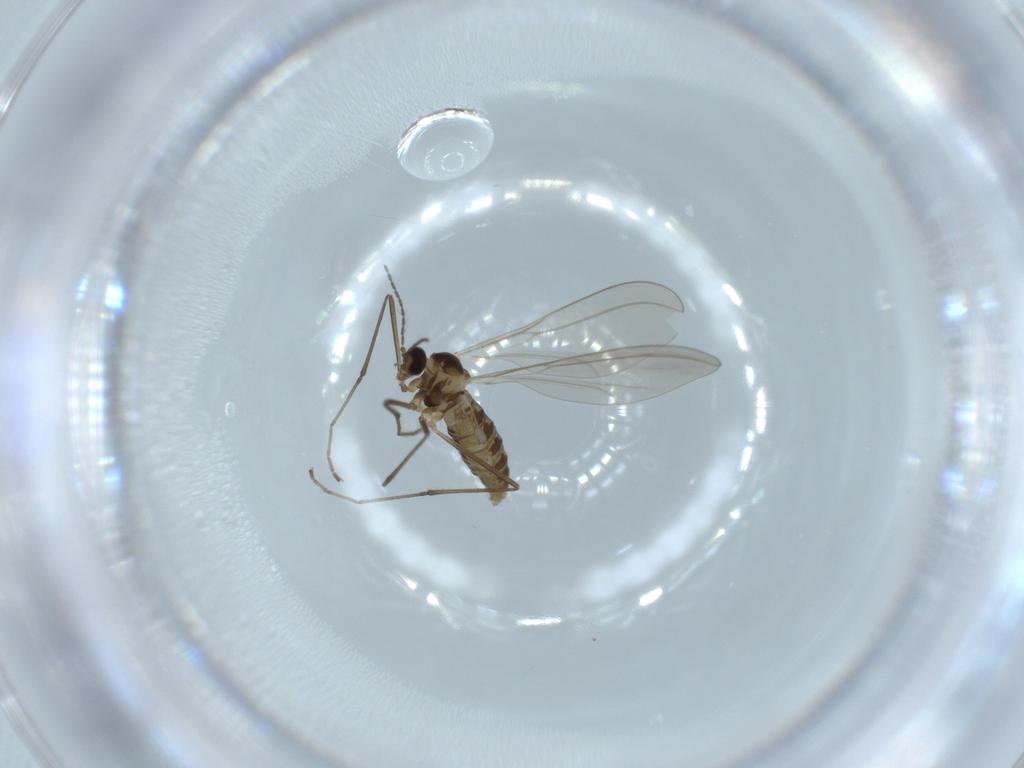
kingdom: Animalia
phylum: Arthropoda
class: Insecta
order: Diptera
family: Cecidomyiidae
